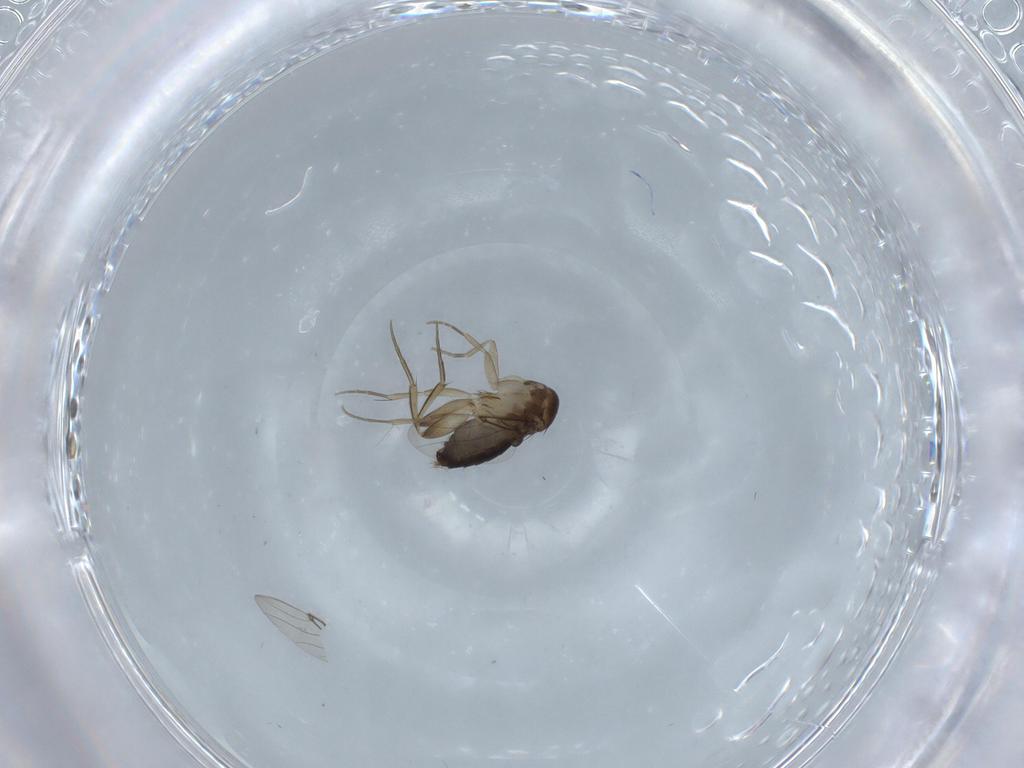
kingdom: Animalia
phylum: Arthropoda
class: Insecta
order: Diptera
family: Phoridae
